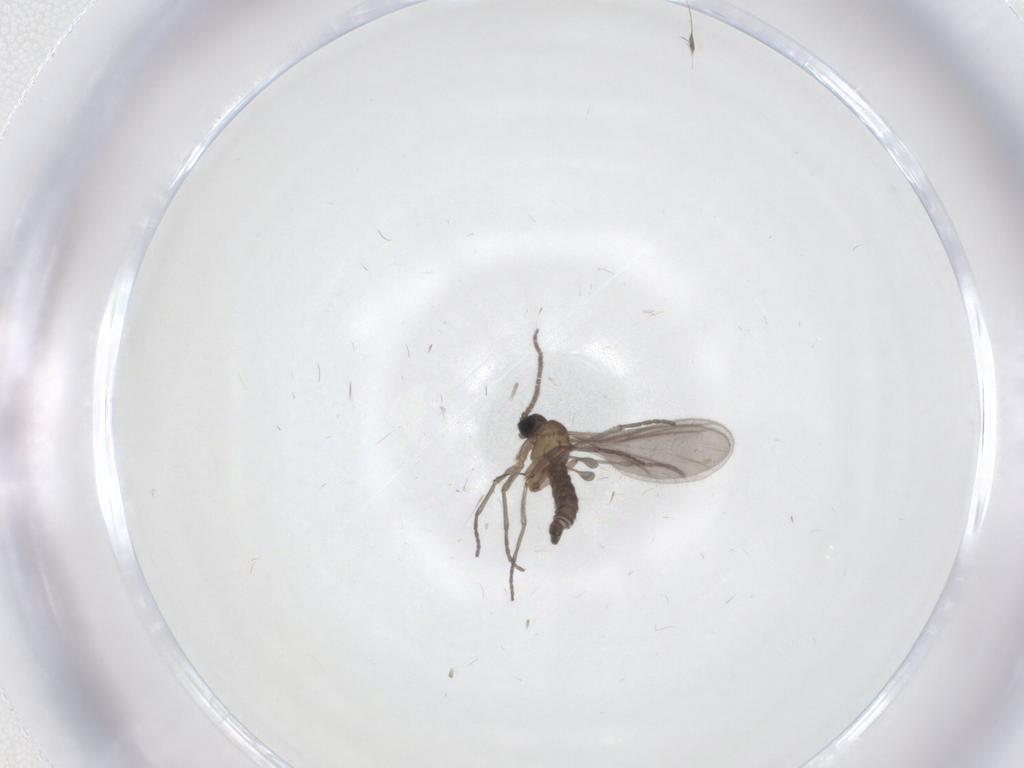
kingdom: Animalia
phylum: Arthropoda
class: Insecta
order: Diptera
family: Sciaridae
